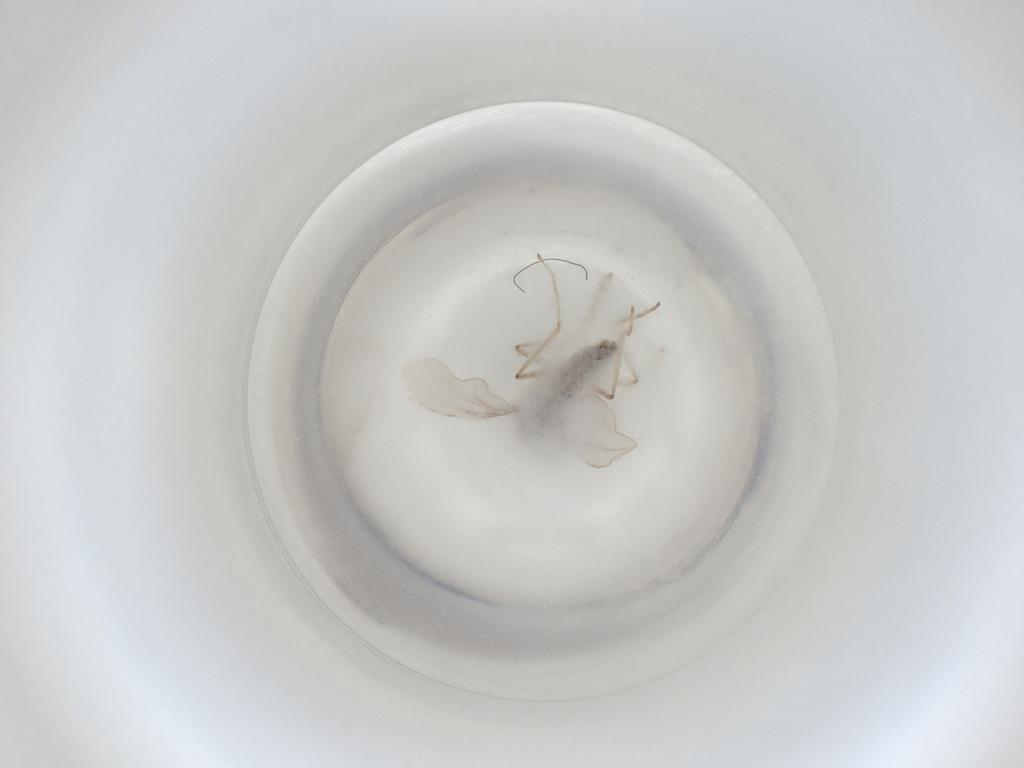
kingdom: Animalia
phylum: Arthropoda
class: Insecta
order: Diptera
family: Cecidomyiidae
